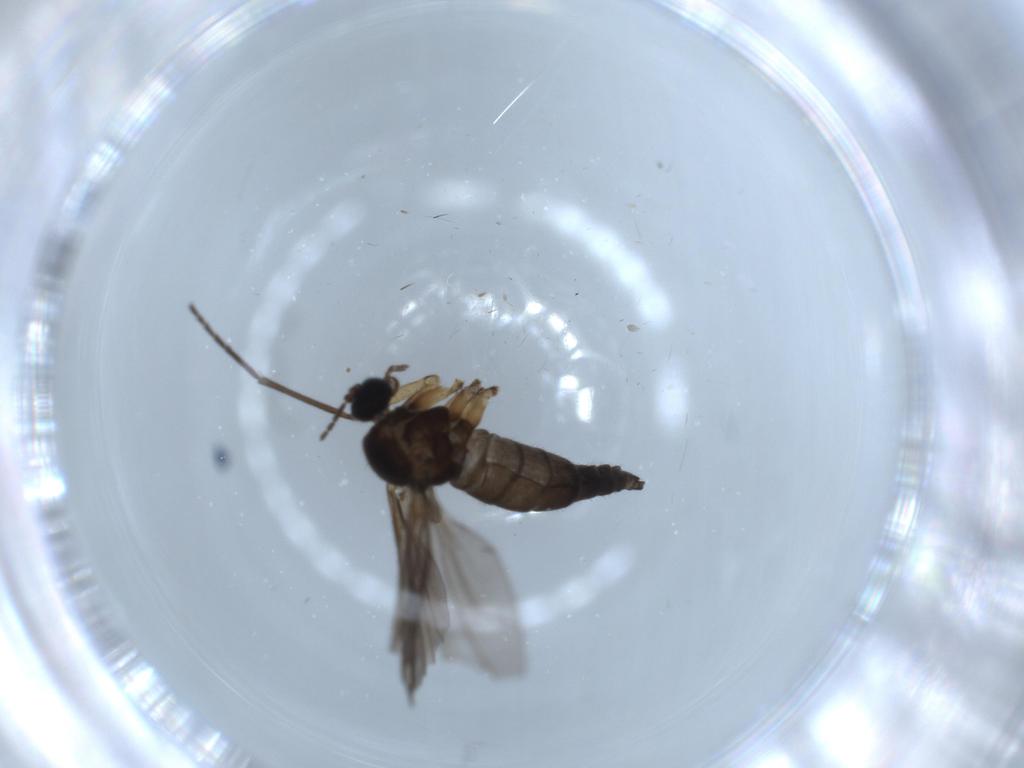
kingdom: Animalia
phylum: Arthropoda
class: Insecta
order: Diptera
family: Sciaridae
